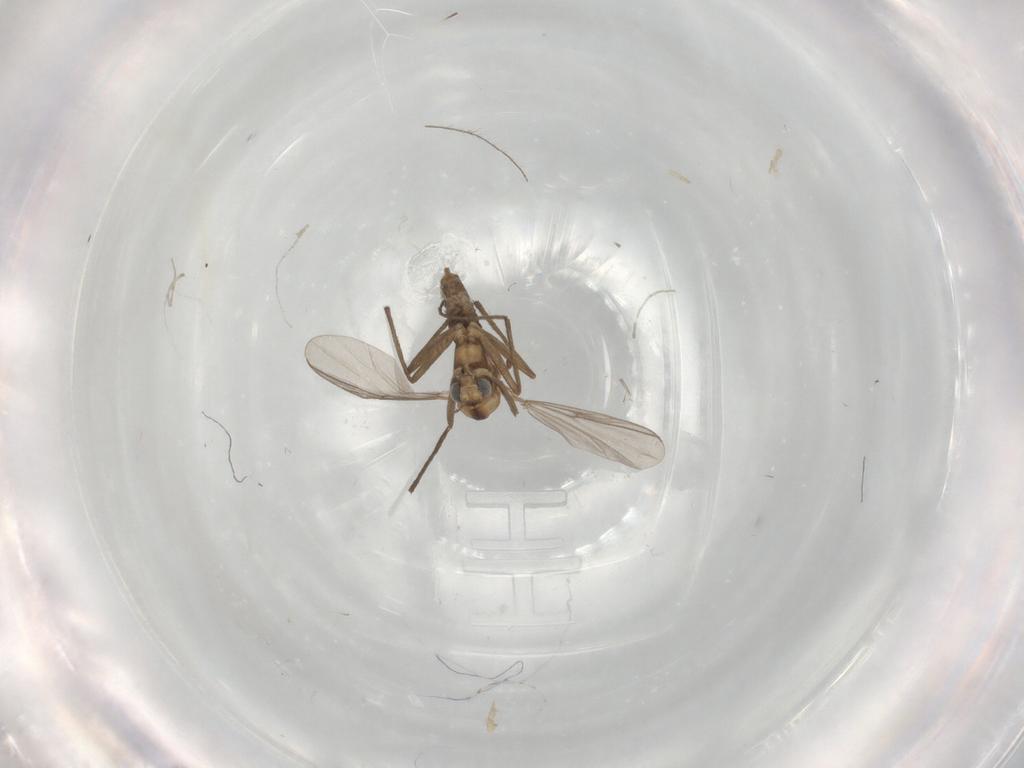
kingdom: Animalia
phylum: Arthropoda
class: Insecta
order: Diptera
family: Chironomidae
